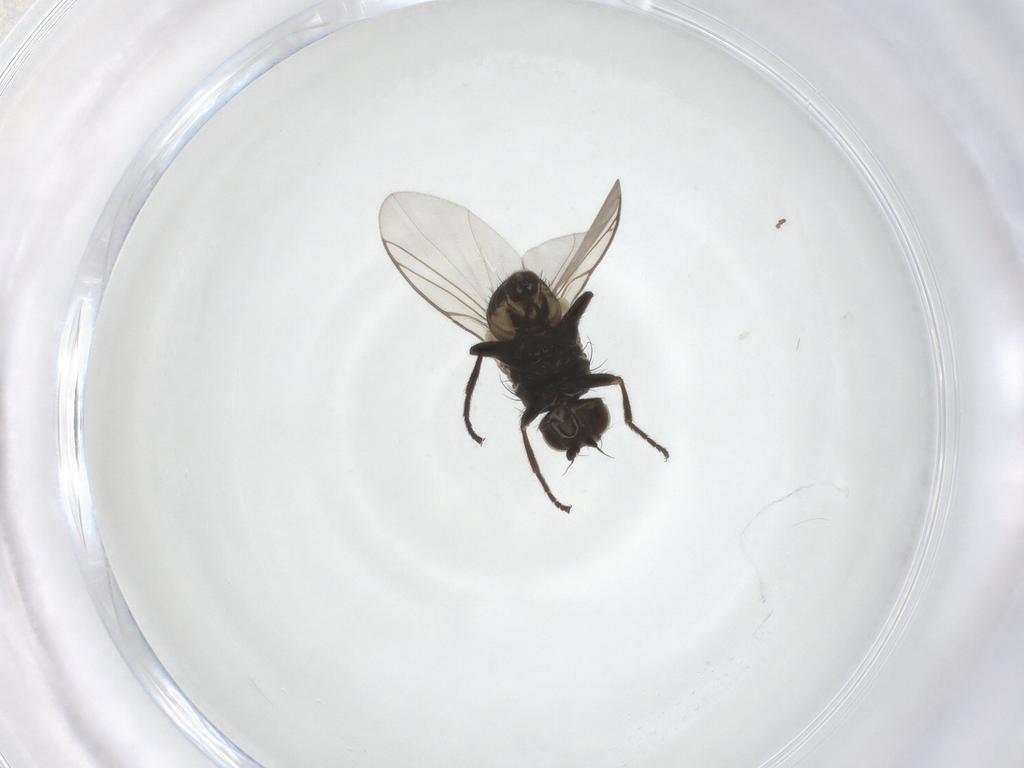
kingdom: Animalia
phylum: Arthropoda
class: Insecta
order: Diptera
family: Agromyzidae
